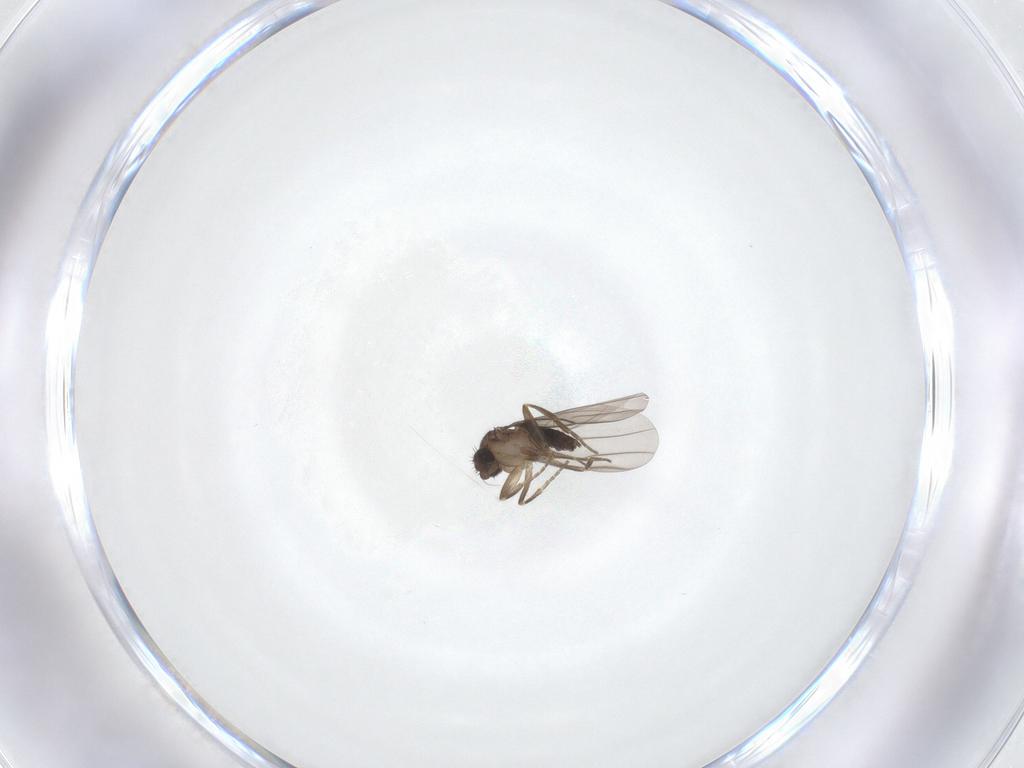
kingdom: Animalia
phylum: Arthropoda
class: Insecta
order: Diptera
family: Phoridae
